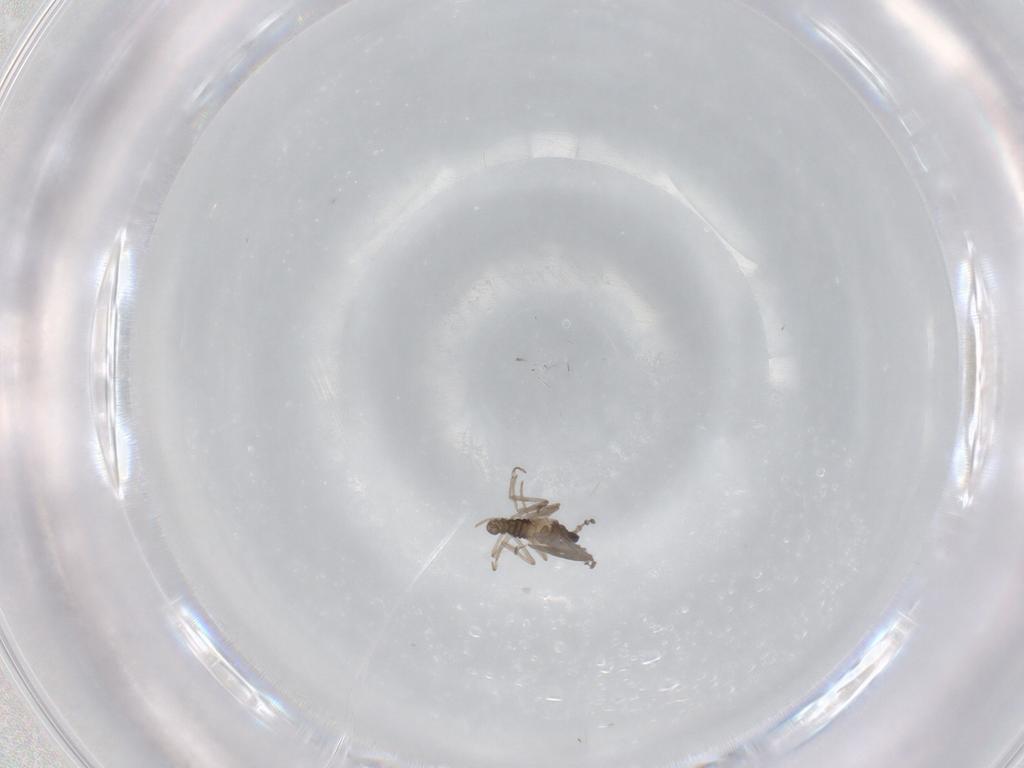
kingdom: Animalia
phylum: Arthropoda
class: Insecta
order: Diptera
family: Cecidomyiidae
